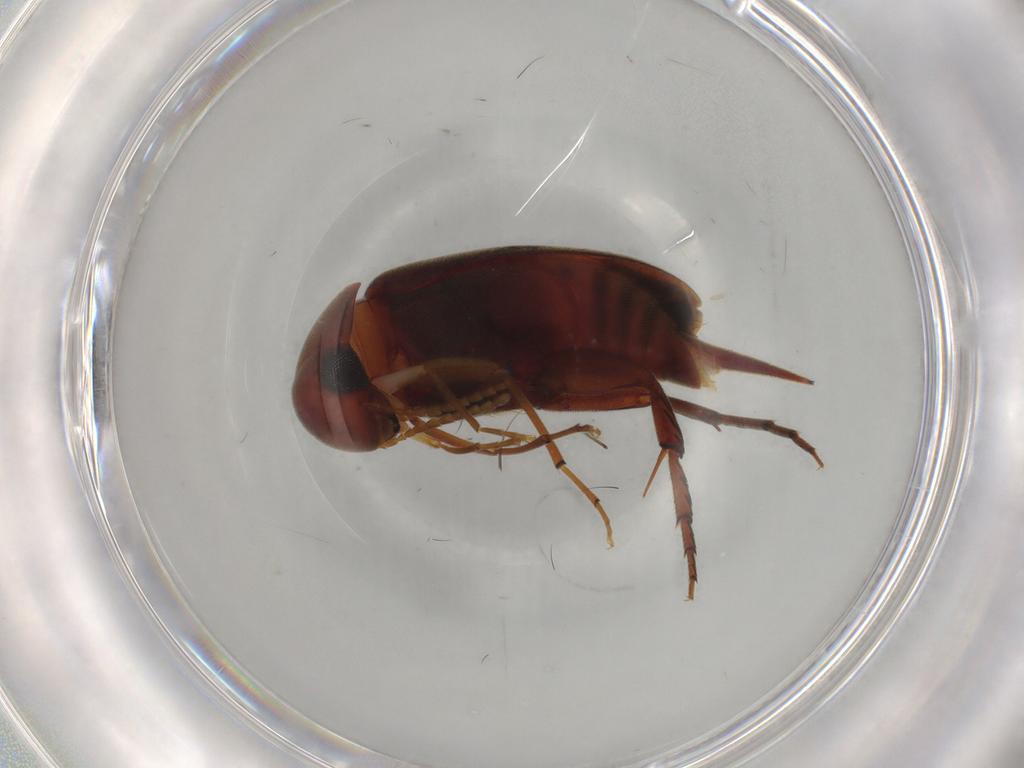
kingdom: Animalia
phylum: Arthropoda
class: Insecta
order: Coleoptera
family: Mordellidae
